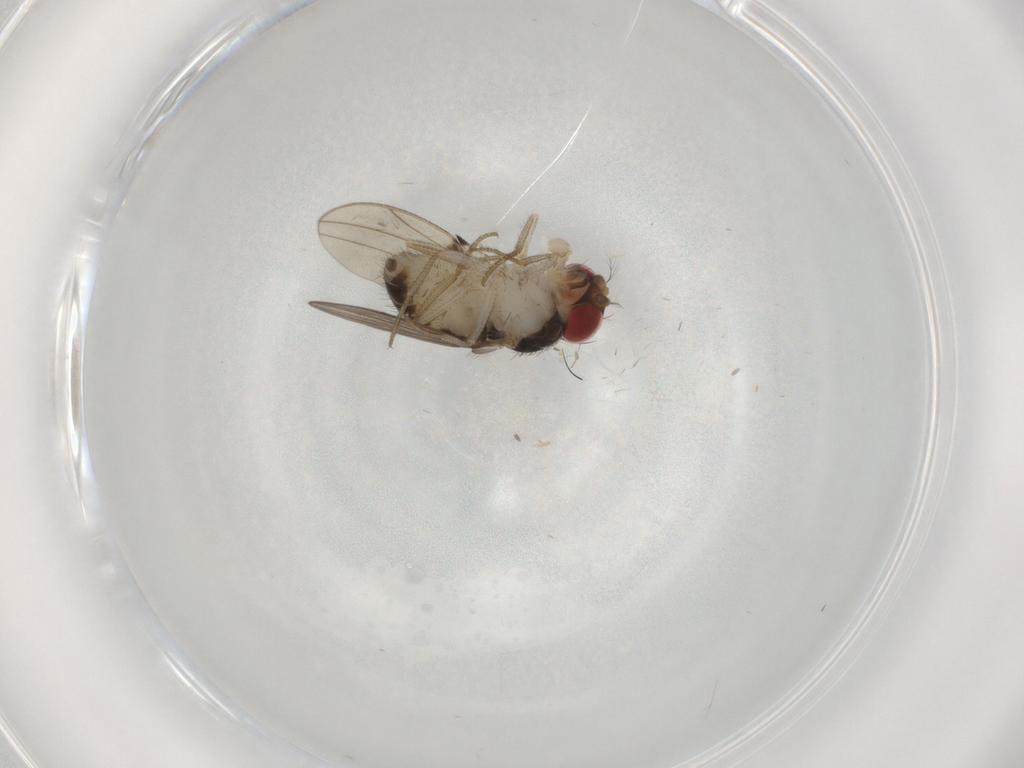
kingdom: Animalia
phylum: Arthropoda
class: Insecta
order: Diptera
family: Drosophilidae
